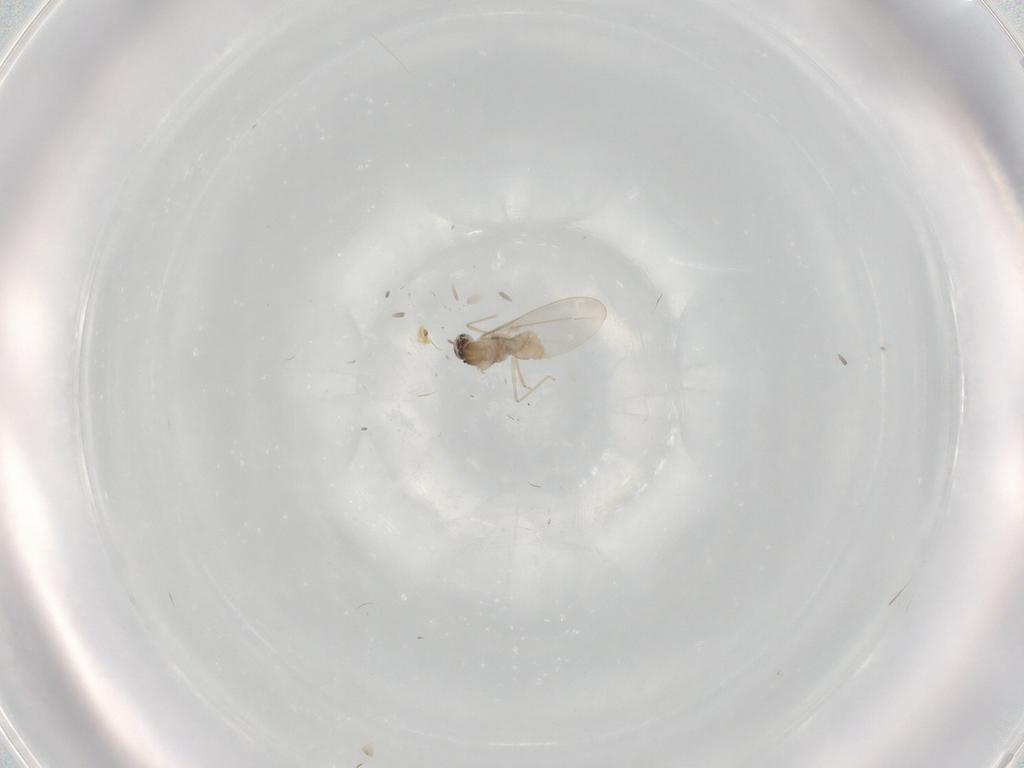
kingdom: Animalia
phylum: Arthropoda
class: Insecta
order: Diptera
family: Cecidomyiidae
